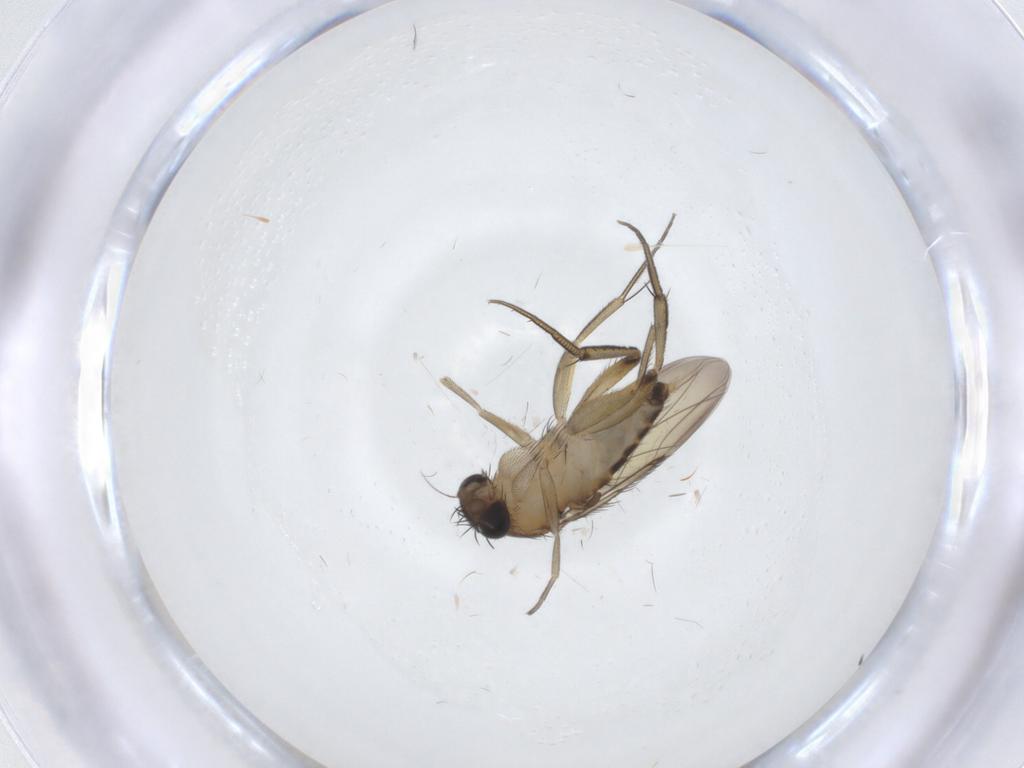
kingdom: Animalia
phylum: Arthropoda
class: Insecta
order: Diptera
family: Phoridae
